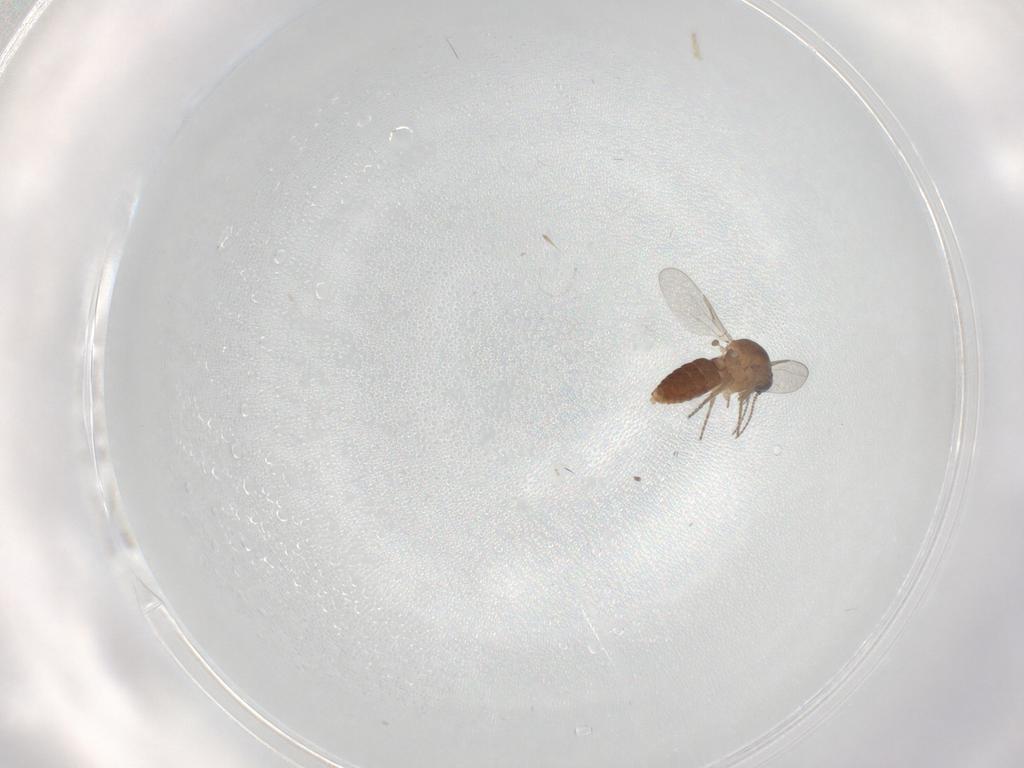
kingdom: Animalia
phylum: Arthropoda
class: Insecta
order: Diptera
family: Ceratopogonidae
